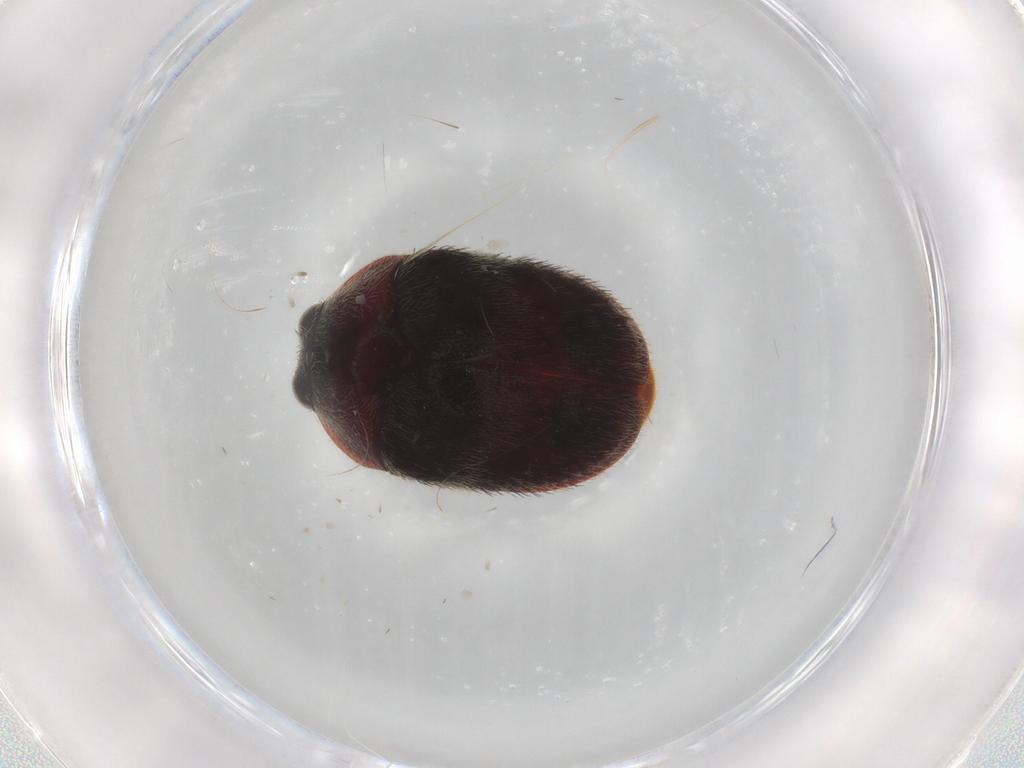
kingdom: Animalia
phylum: Arthropoda
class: Insecta
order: Coleoptera
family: Dermestidae
